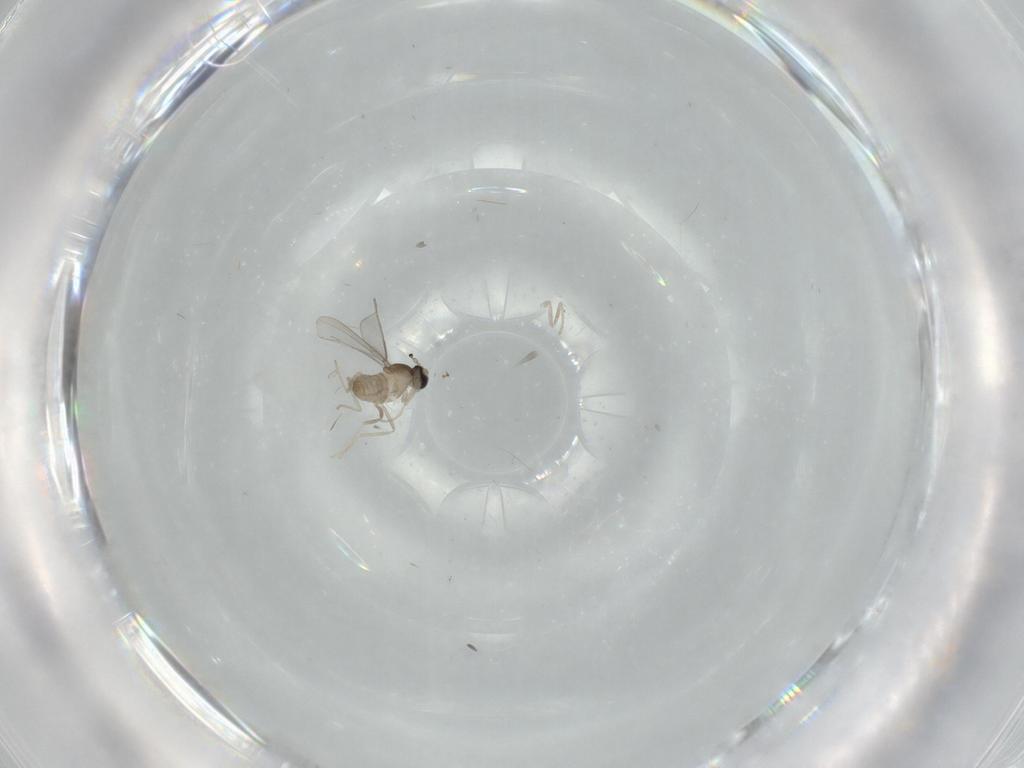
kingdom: Animalia
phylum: Arthropoda
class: Insecta
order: Diptera
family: Cecidomyiidae
